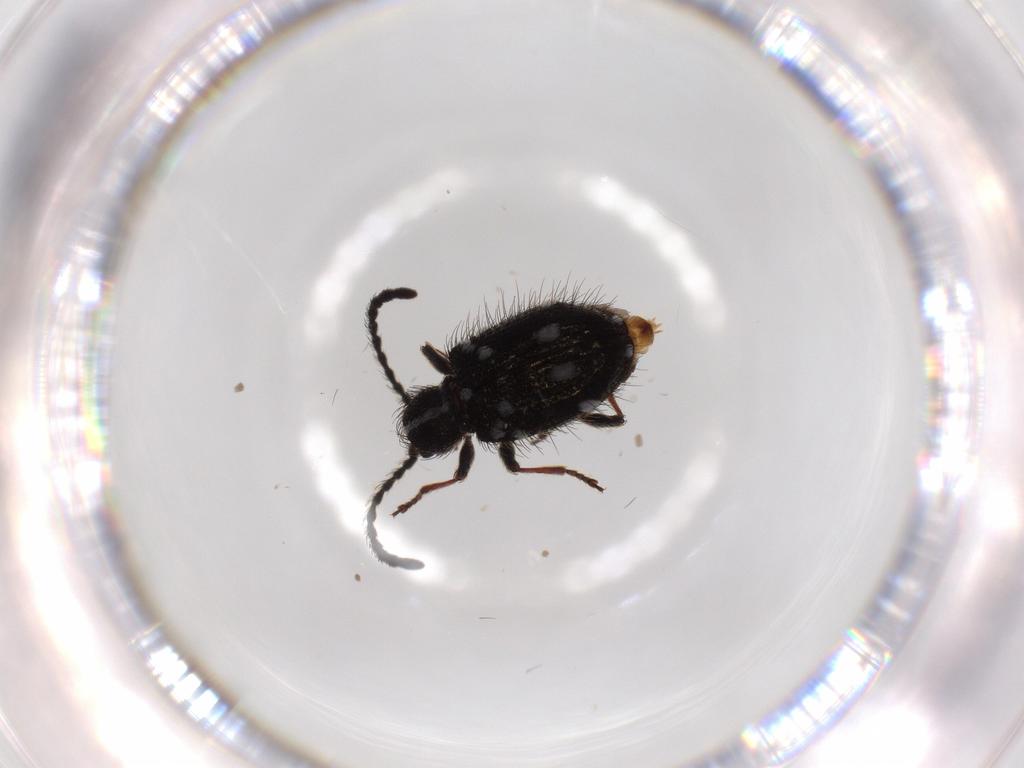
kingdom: Animalia
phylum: Arthropoda
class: Insecta
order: Coleoptera
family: Ptinidae
